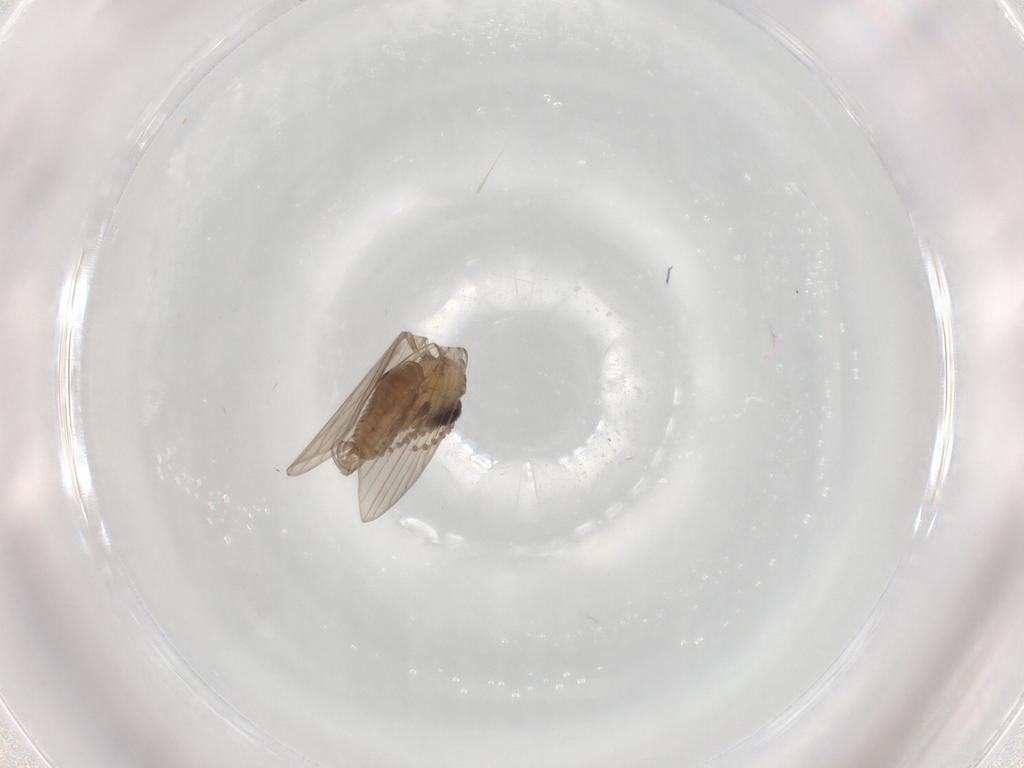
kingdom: Animalia
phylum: Arthropoda
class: Insecta
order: Diptera
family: Psychodidae
